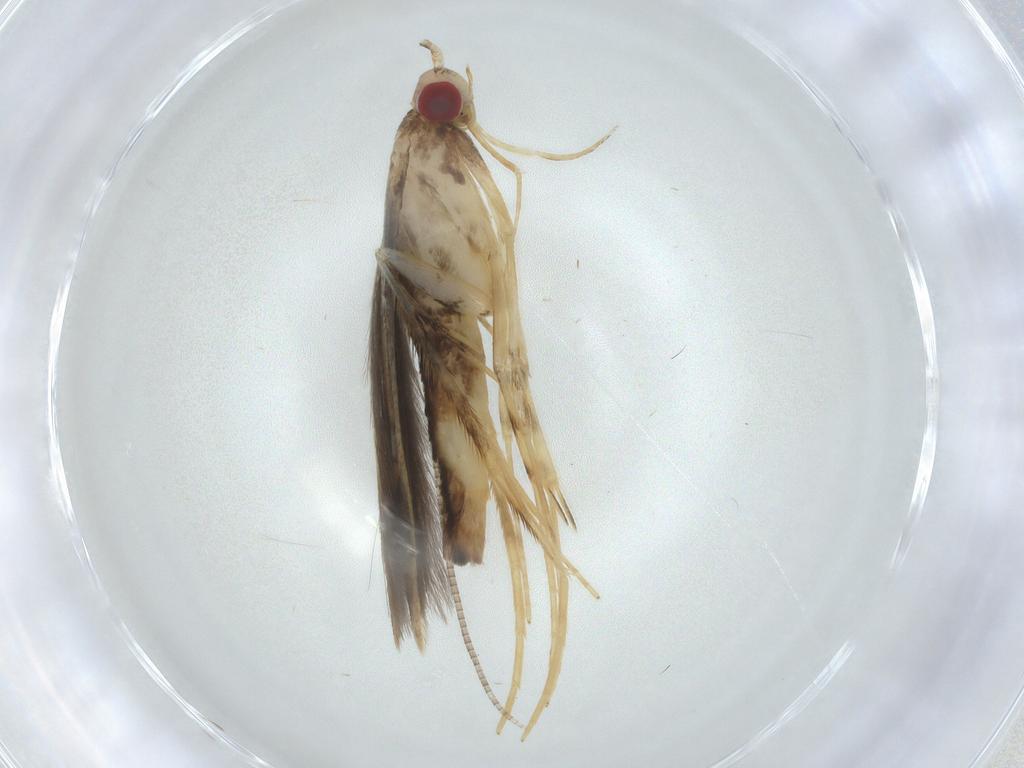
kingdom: Animalia
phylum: Arthropoda
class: Insecta
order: Lepidoptera
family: Gracillariidae
